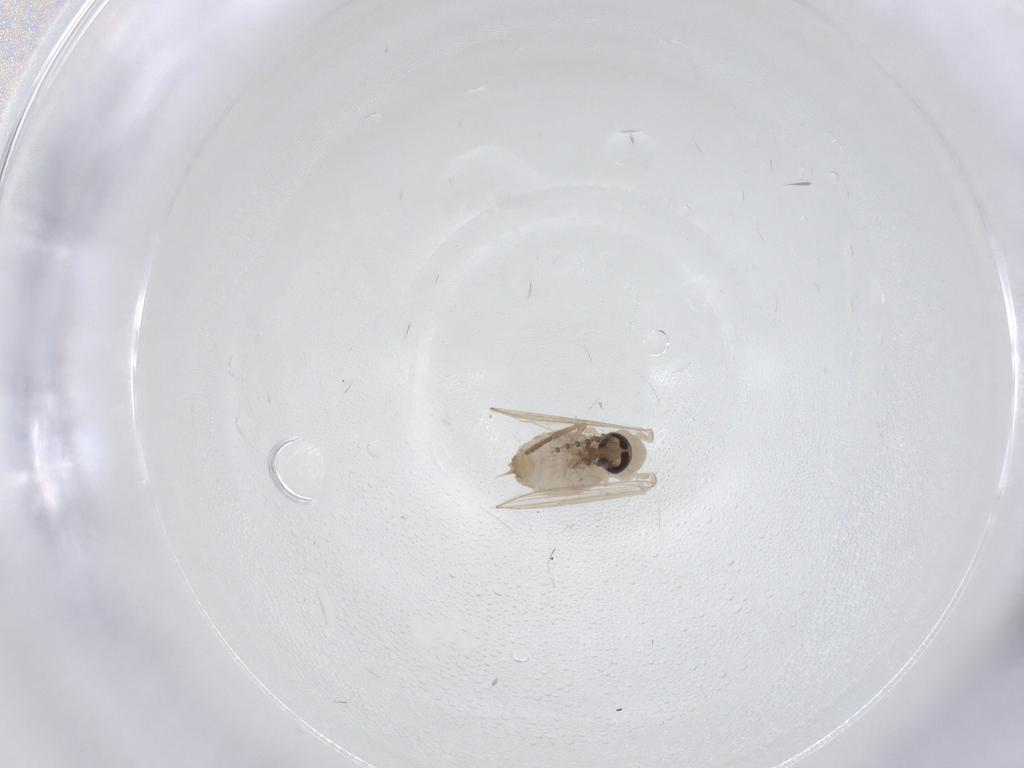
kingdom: Animalia
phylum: Arthropoda
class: Insecta
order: Diptera
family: Psychodidae
